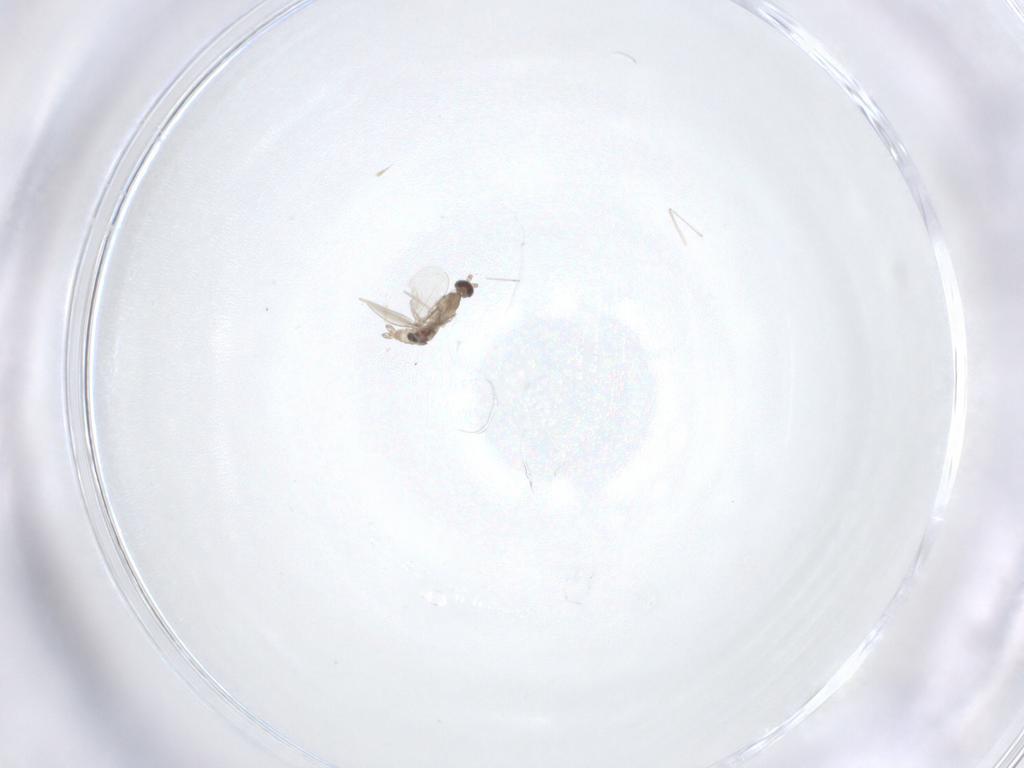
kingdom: Animalia
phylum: Arthropoda
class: Insecta
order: Diptera
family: Cecidomyiidae
